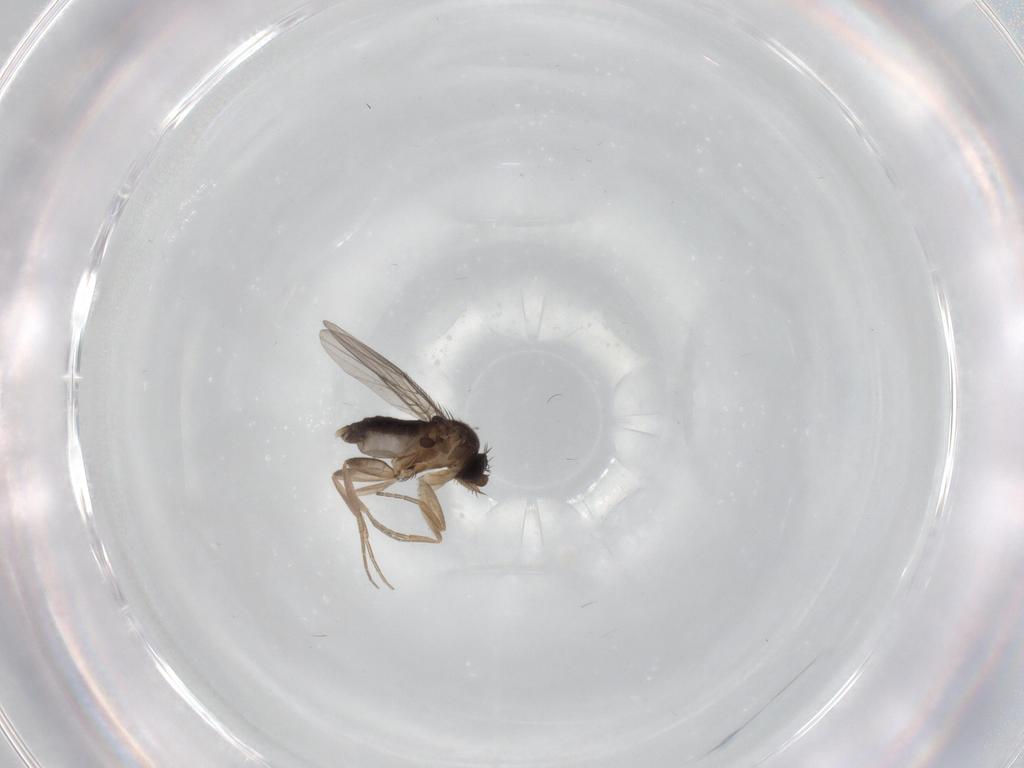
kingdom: Animalia
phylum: Arthropoda
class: Insecta
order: Diptera
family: Phoridae
